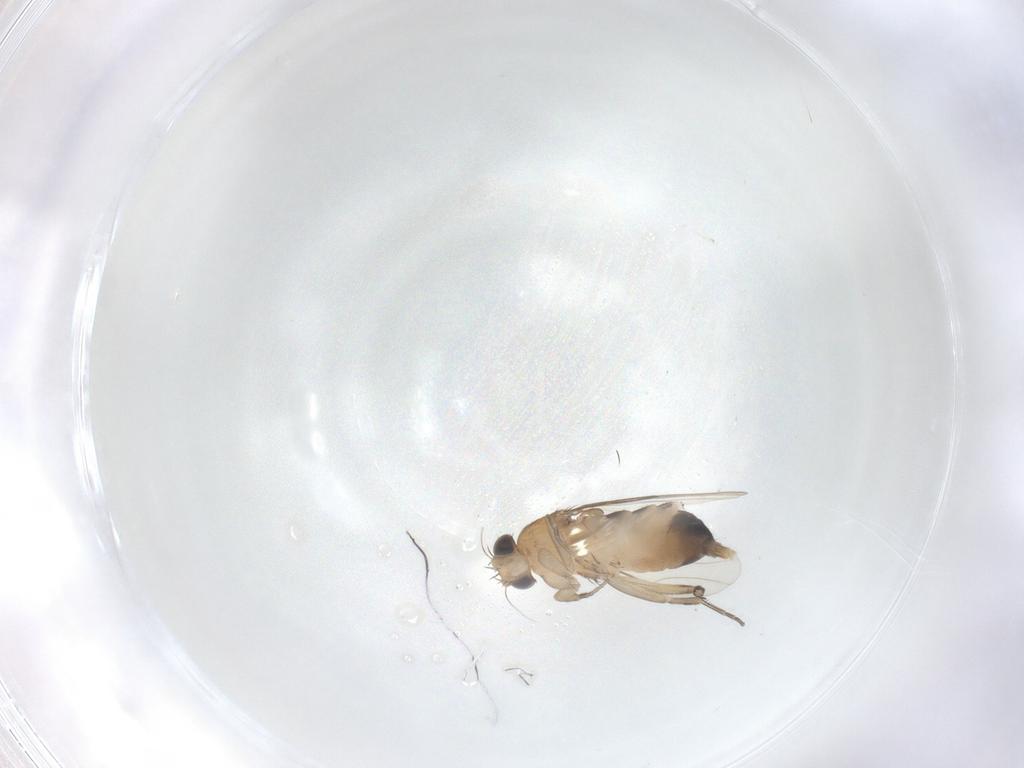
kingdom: Animalia
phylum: Arthropoda
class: Insecta
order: Diptera
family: Phoridae
